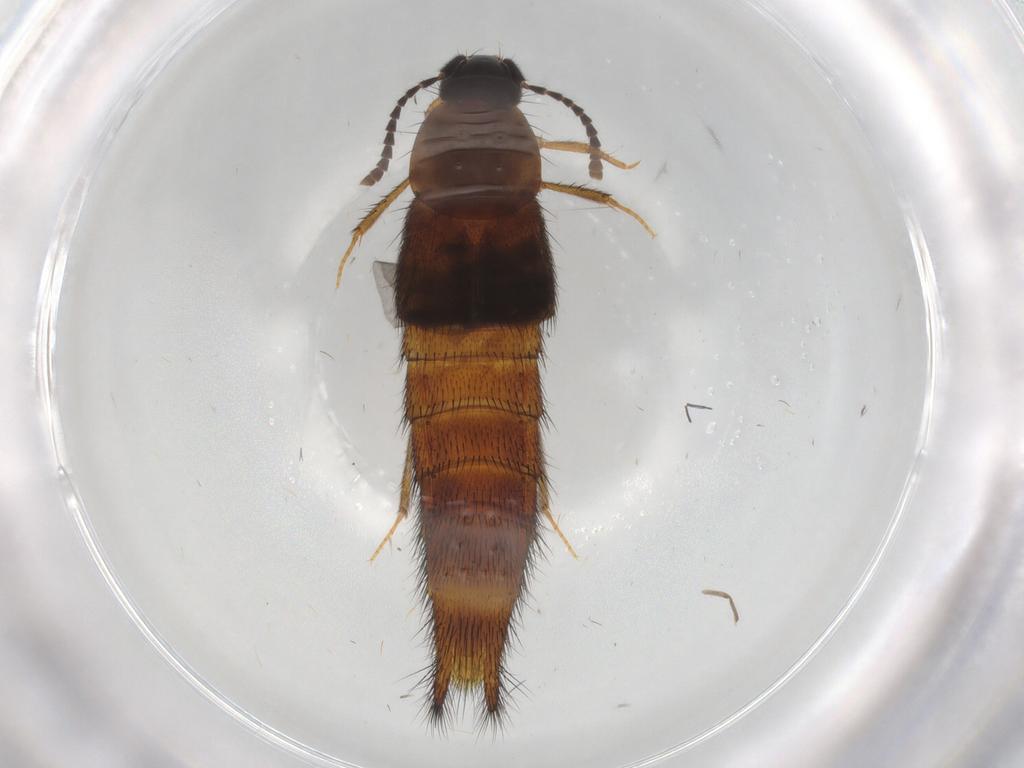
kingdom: Animalia
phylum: Arthropoda
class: Insecta
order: Coleoptera
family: Staphylinidae
